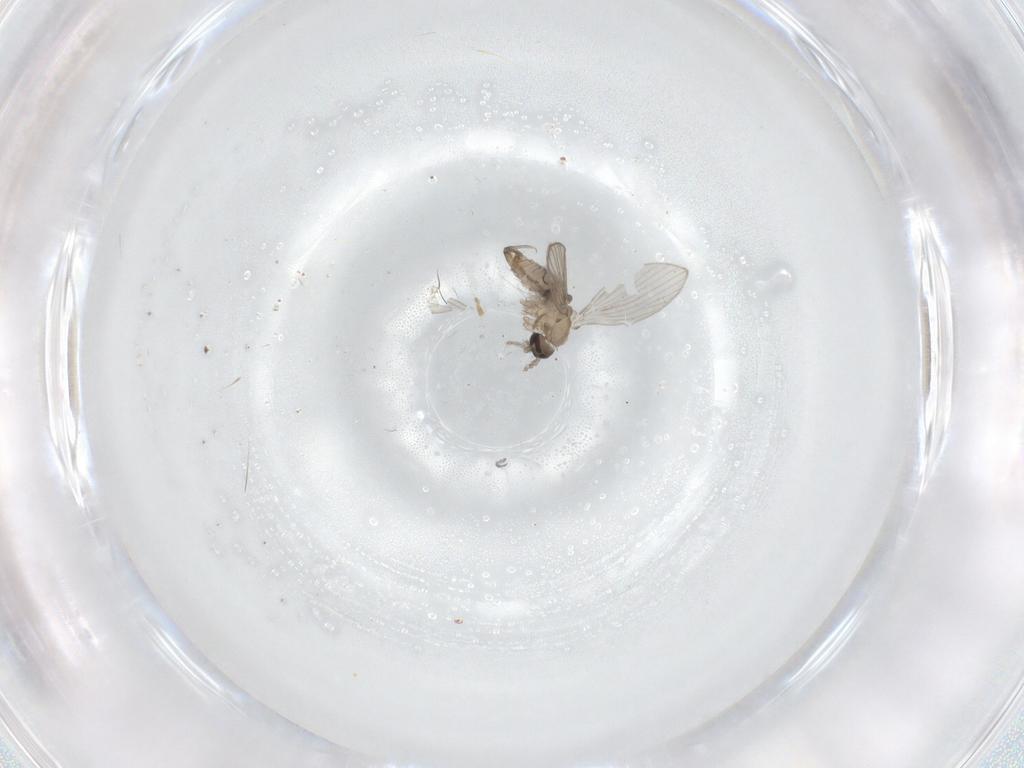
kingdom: Animalia
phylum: Arthropoda
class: Insecta
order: Diptera
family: Psychodidae
